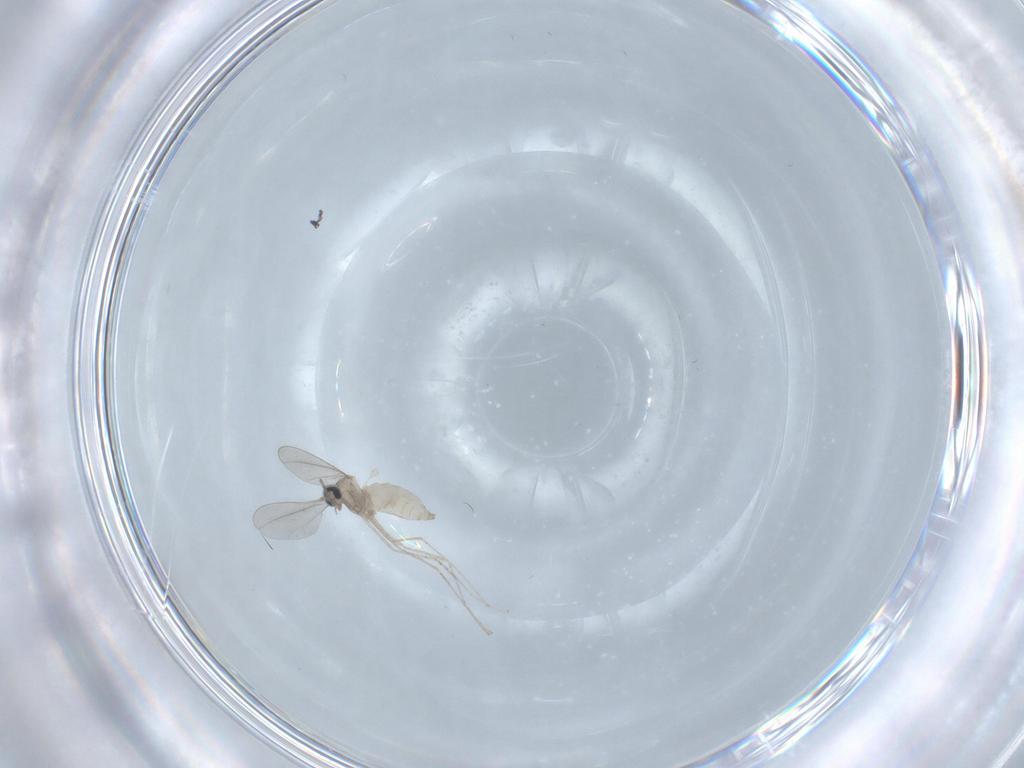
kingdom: Animalia
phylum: Arthropoda
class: Insecta
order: Diptera
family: Cecidomyiidae
